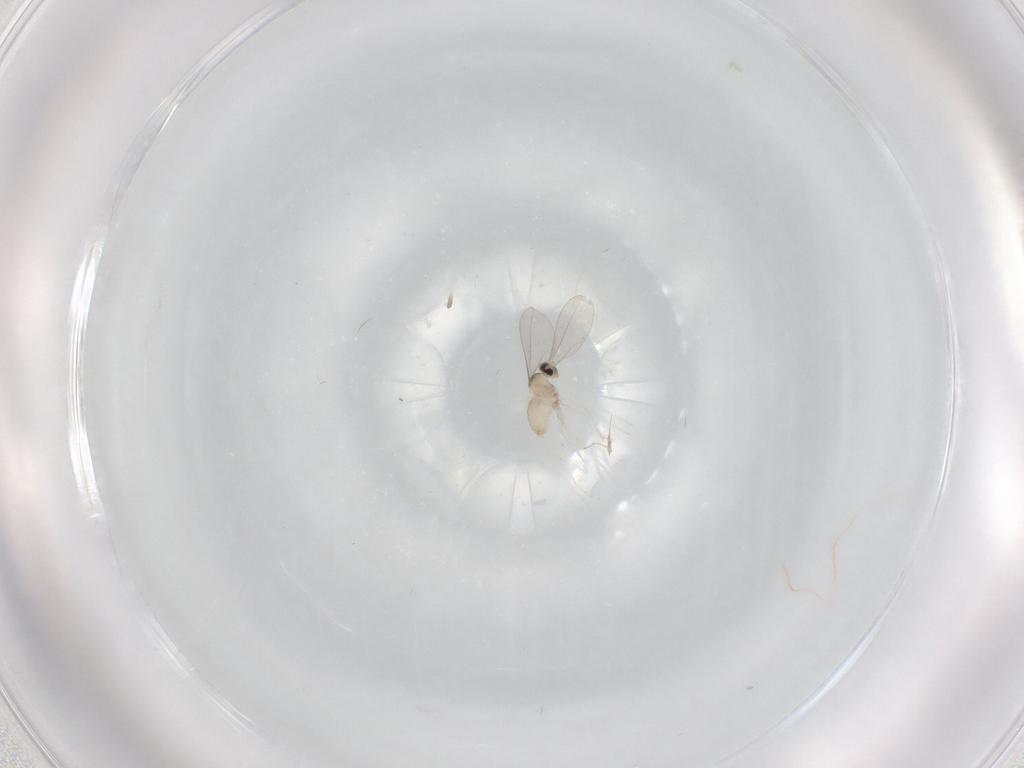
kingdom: Animalia
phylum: Arthropoda
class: Insecta
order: Diptera
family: Cecidomyiidae
